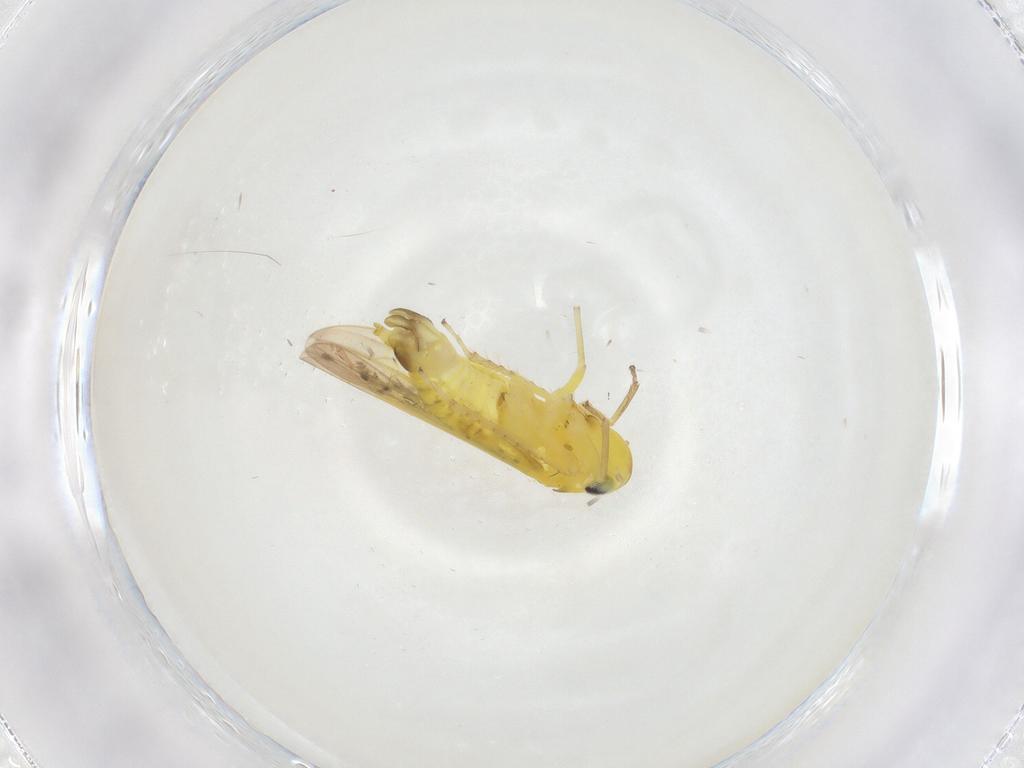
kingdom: Animalia
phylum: Arthropoda
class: Insecta
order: Hemiptera
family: Cicadellidae
